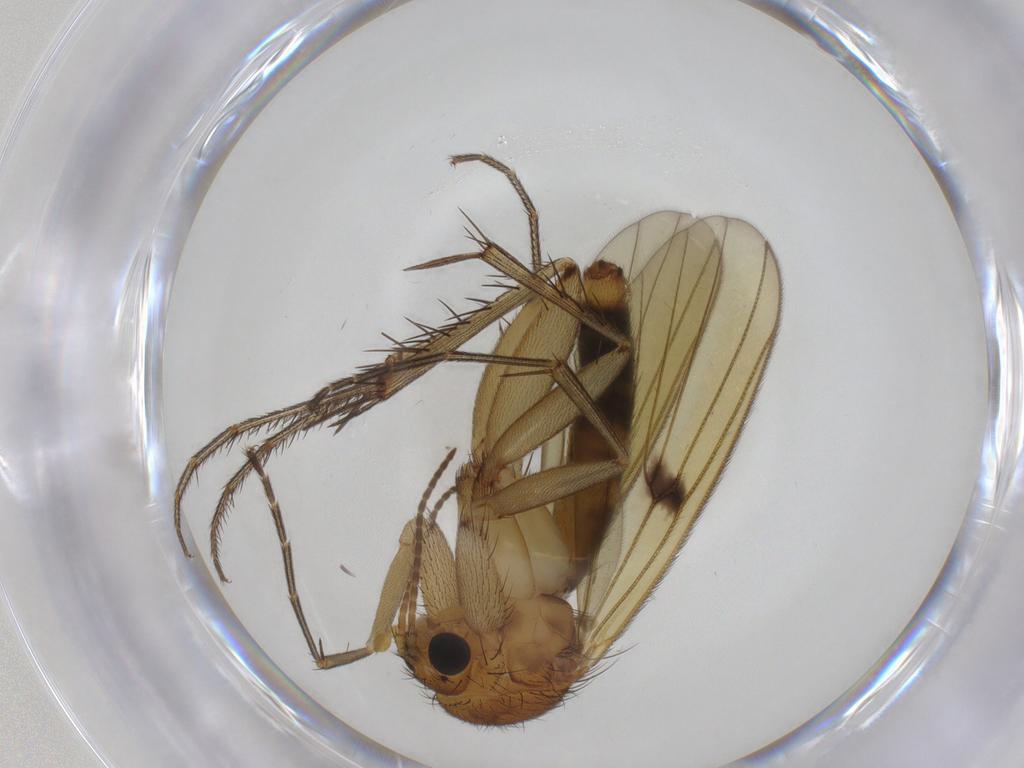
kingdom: Animalia
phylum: Arthropoda
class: Insecta
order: Diptera
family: Mycetophilidae
